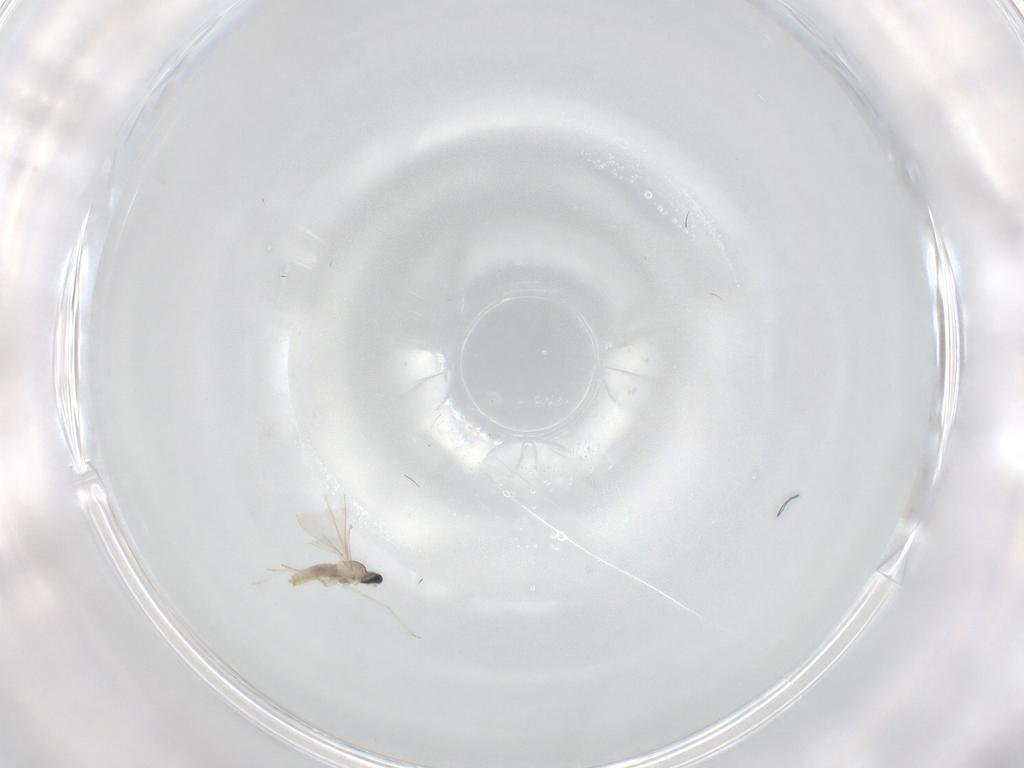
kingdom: Animalia
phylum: Arthropoda
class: Insecta
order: Diptera
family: Cecidomyiidae
